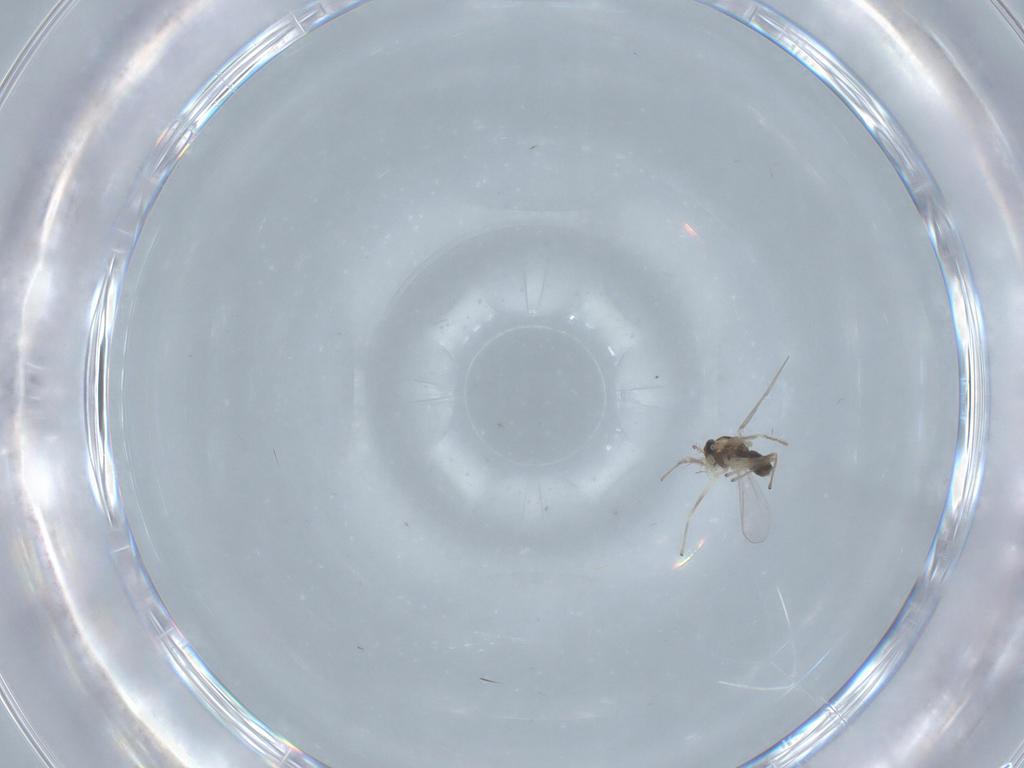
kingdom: Animalia
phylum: Arthropoda
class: Insecta
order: Diptera
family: Chironomidae
